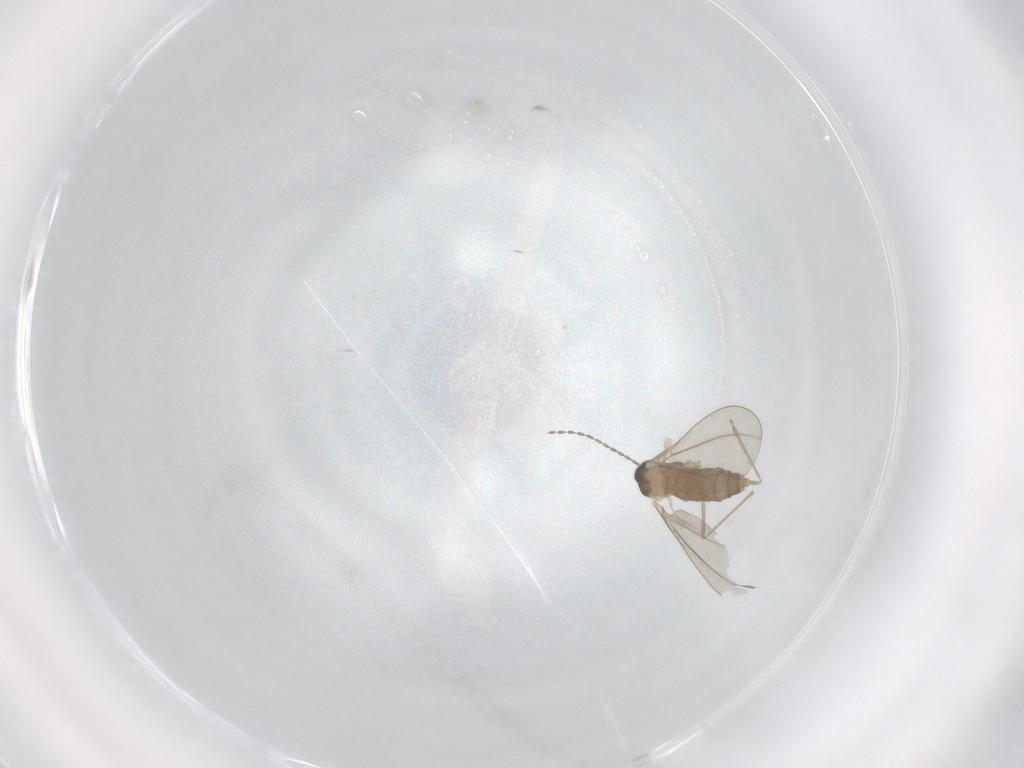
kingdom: Animalia
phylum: Arthropoda
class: Insecta
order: Diptera
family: Cecidomyiidae
